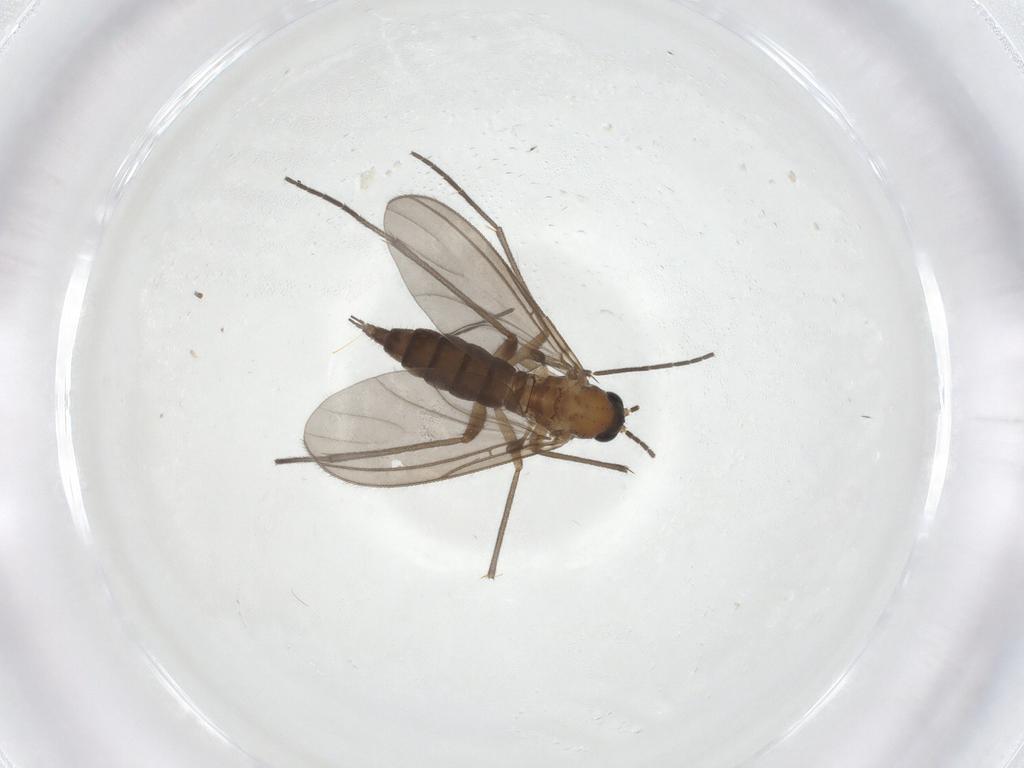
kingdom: Animalia
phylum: Arthropoda
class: Insecta
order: Diptera
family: Sciaridae
